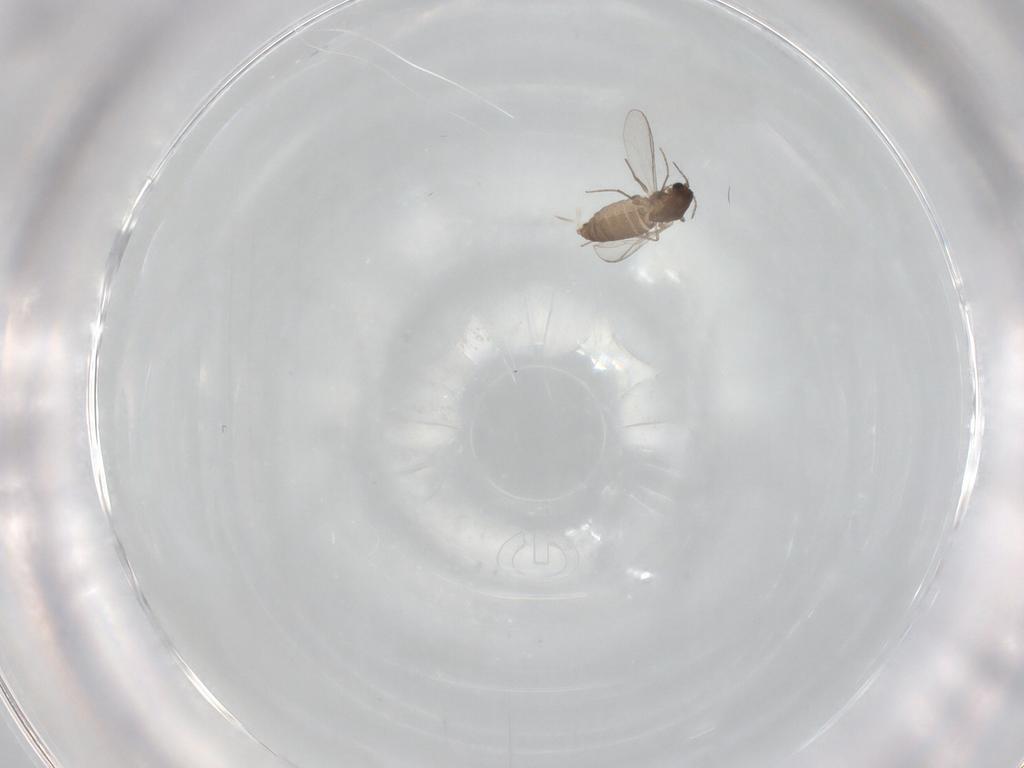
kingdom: Animalia
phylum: Arthropoda
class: Insecta
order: Diptera
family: Chironomidae
